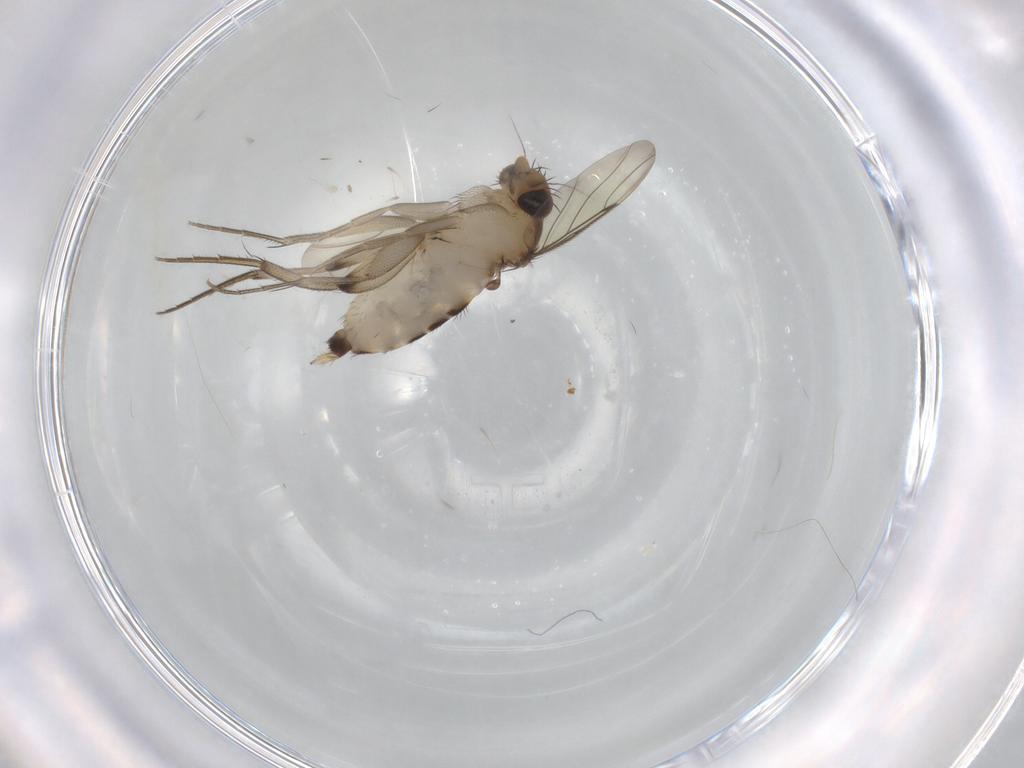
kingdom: Animalia
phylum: Arthropoda
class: Insecta
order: Diptera
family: Phoridae
